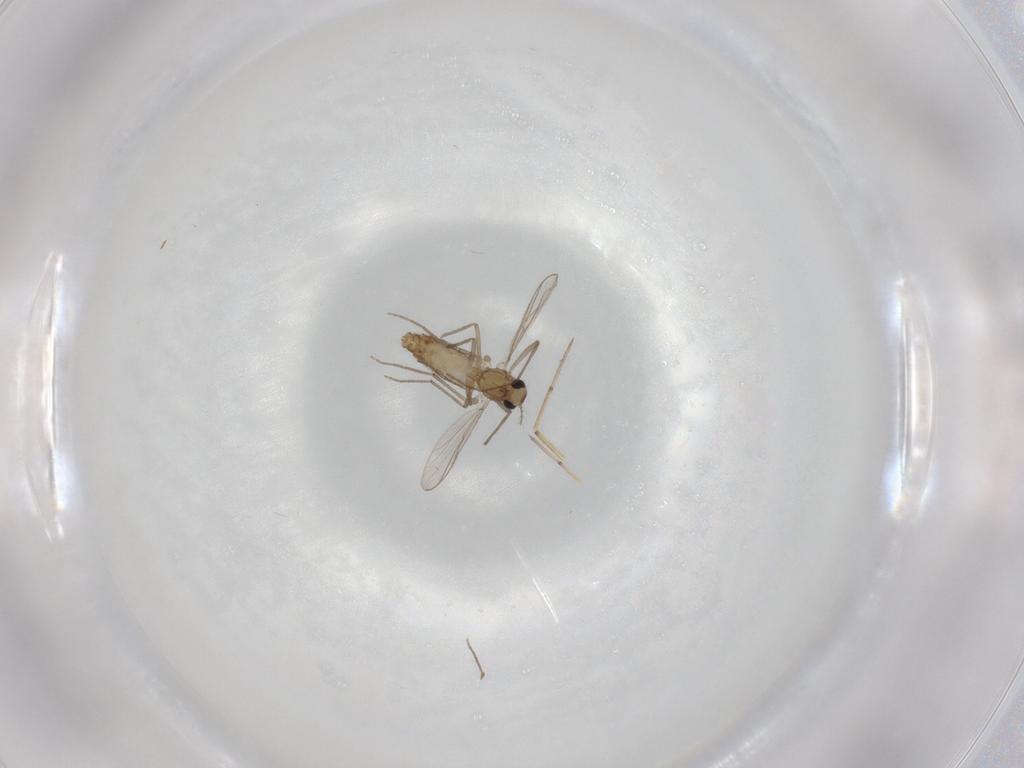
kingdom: Animalia
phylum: Arthropoda
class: Insecta
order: Diptera
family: Chironomidae
